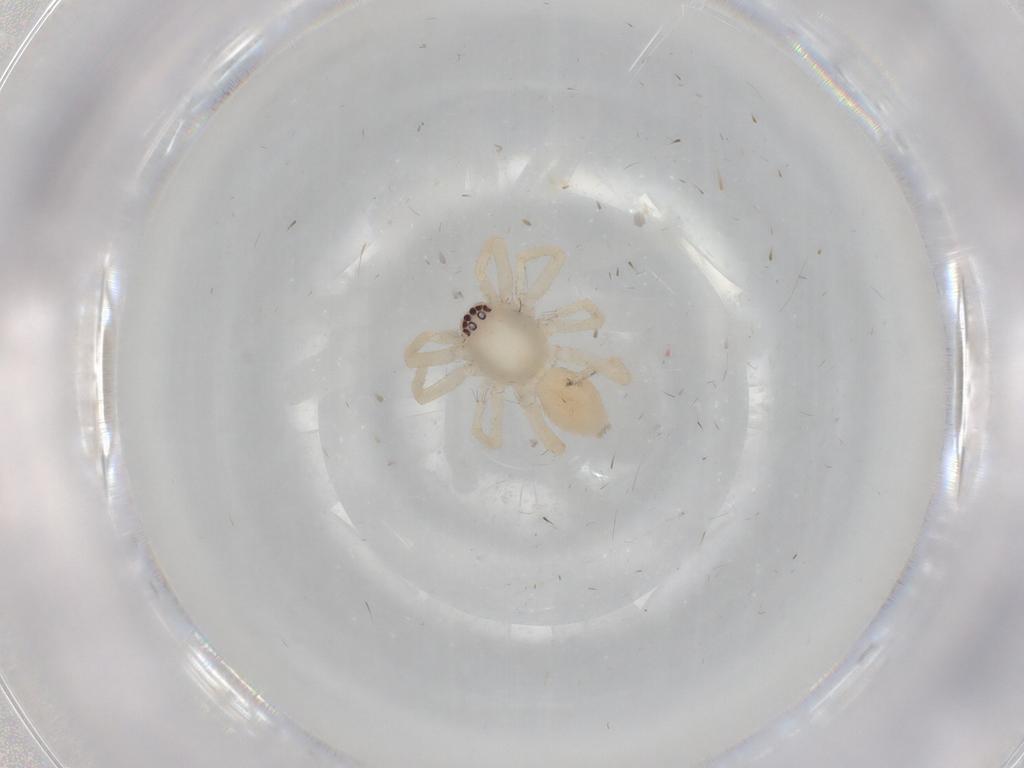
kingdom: Animalia
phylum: Arthropoda
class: Arachnida
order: Araneae
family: Clubionidae
